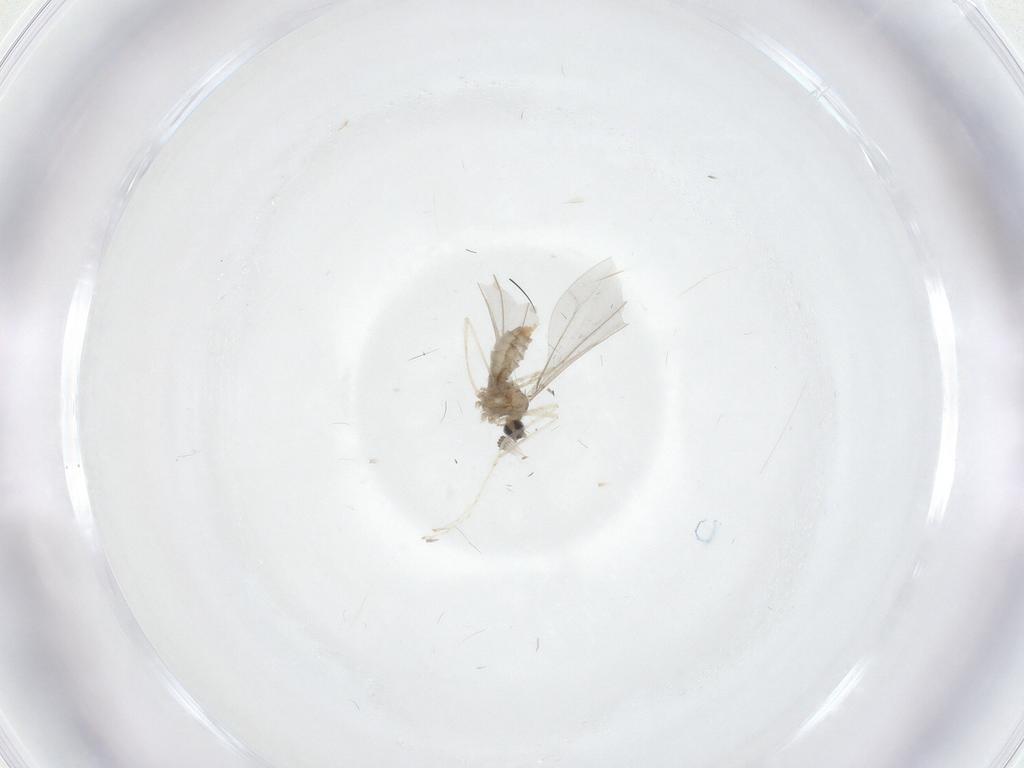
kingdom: Animalia
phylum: Arthropoda
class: Insecta
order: Diptera
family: Cecidomyiidae
